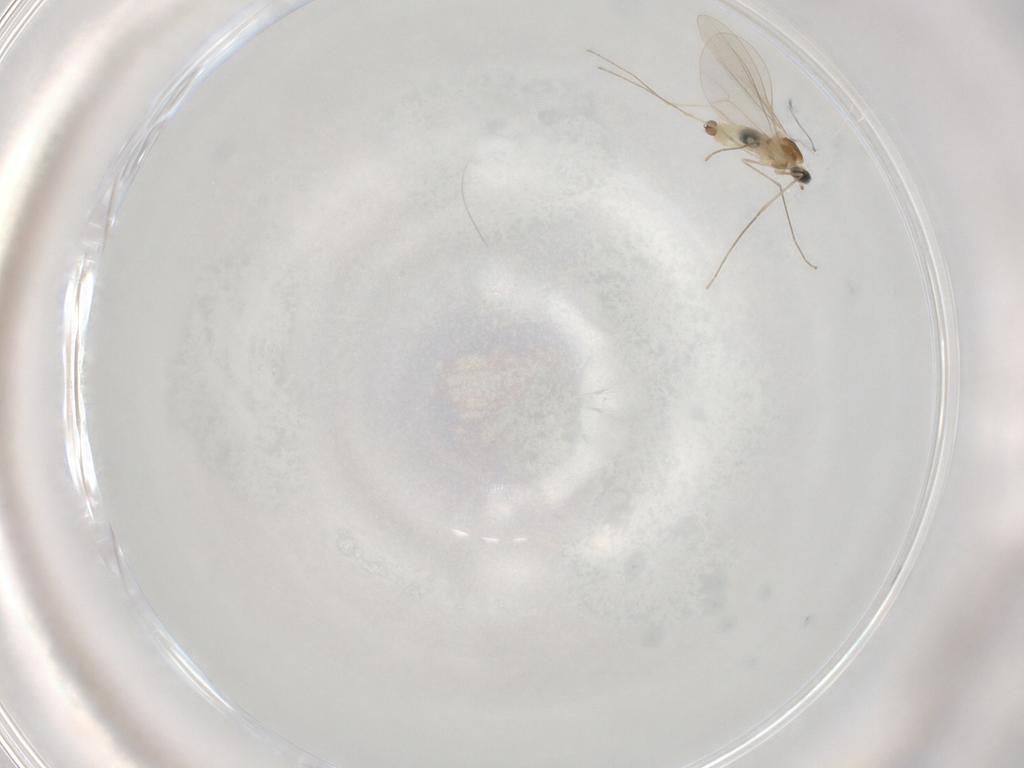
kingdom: Animalia
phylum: Arthropoda
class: Insecta
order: Diptera
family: Cecidomyiidae
